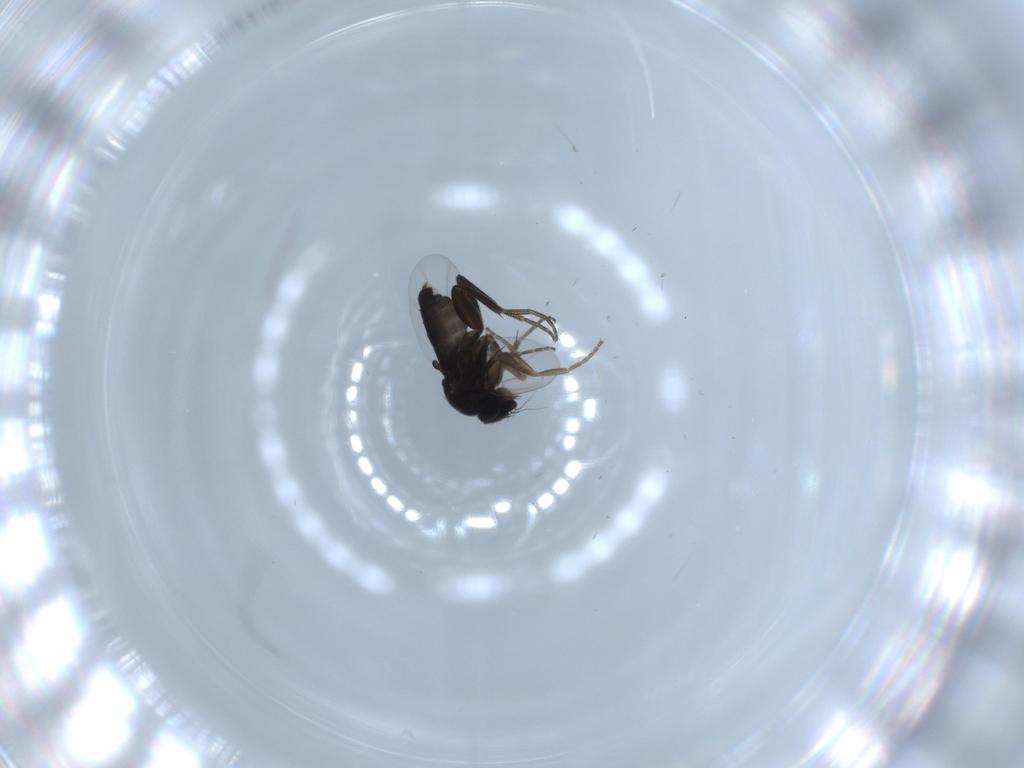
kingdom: Animalia
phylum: Arthropoda
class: Insecta
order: Diptera
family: Phoridae
